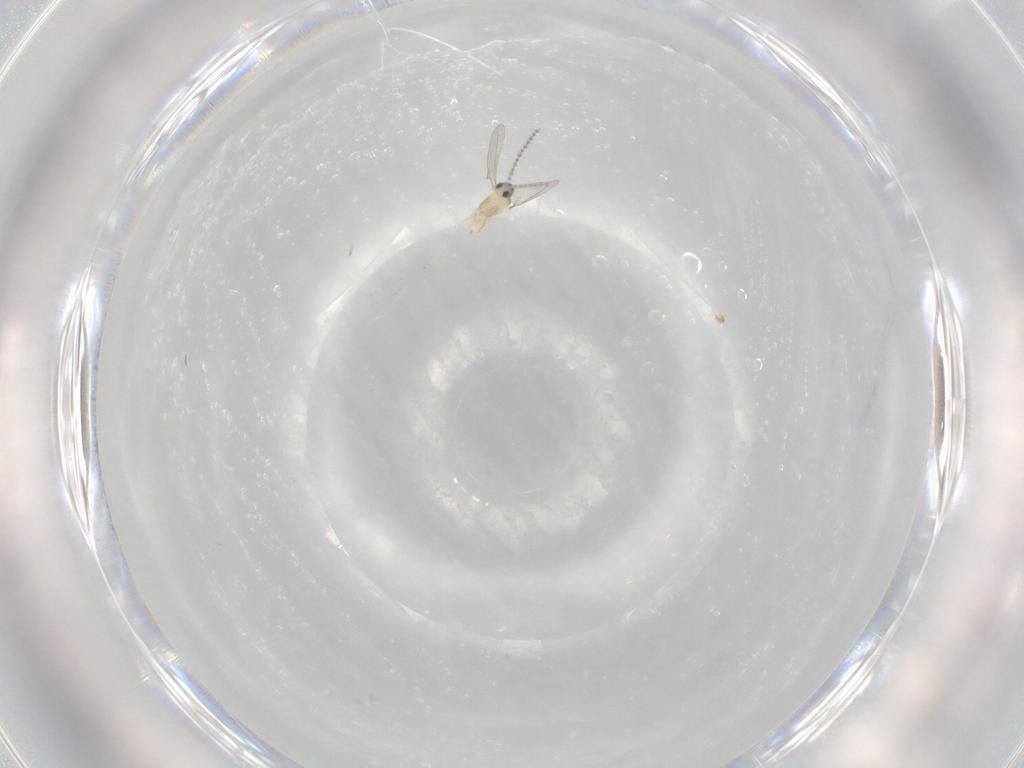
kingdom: Animalia
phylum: Arthropoda
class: Insecta
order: Diptera
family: Cecidomyiidae
